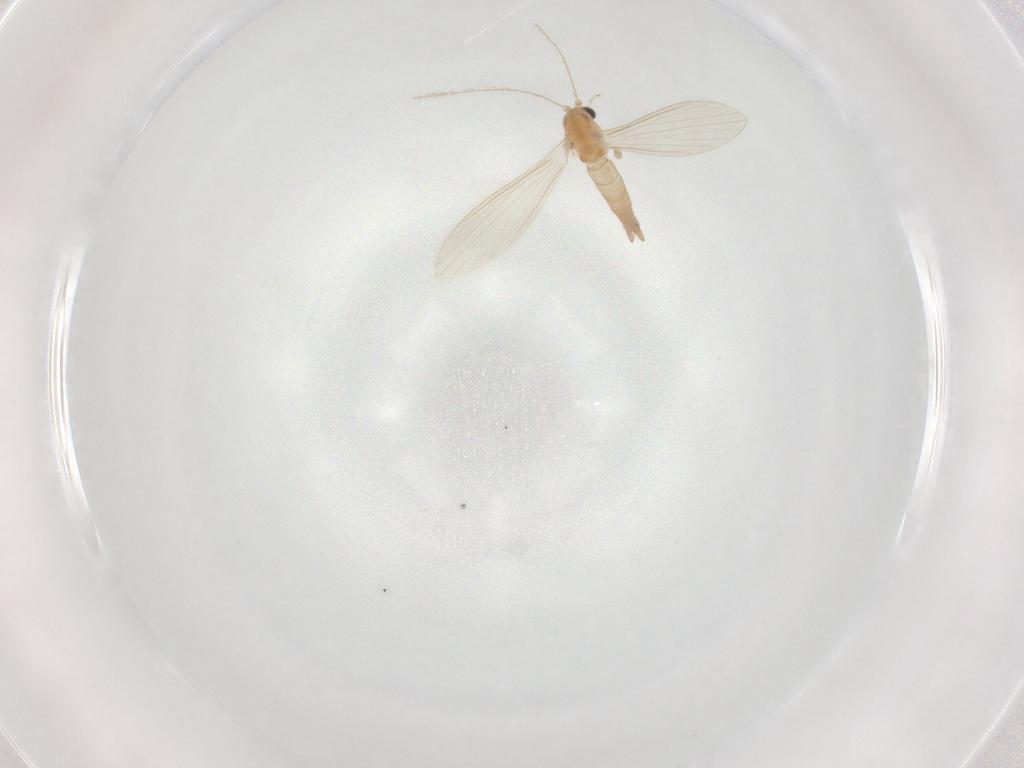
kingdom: Animalia
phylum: Arthropoda
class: Insecta
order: Diptera
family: Psychodidae
